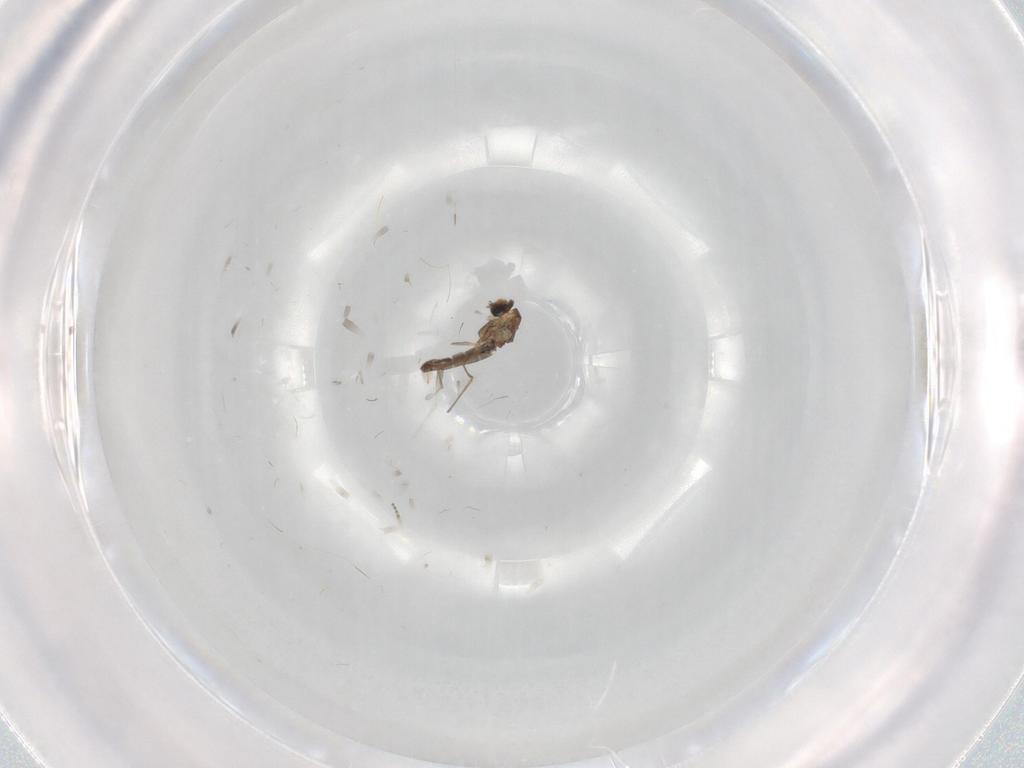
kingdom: Animalia
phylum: Arthropoda
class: Insecta
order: Diptera
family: Chironomidae
